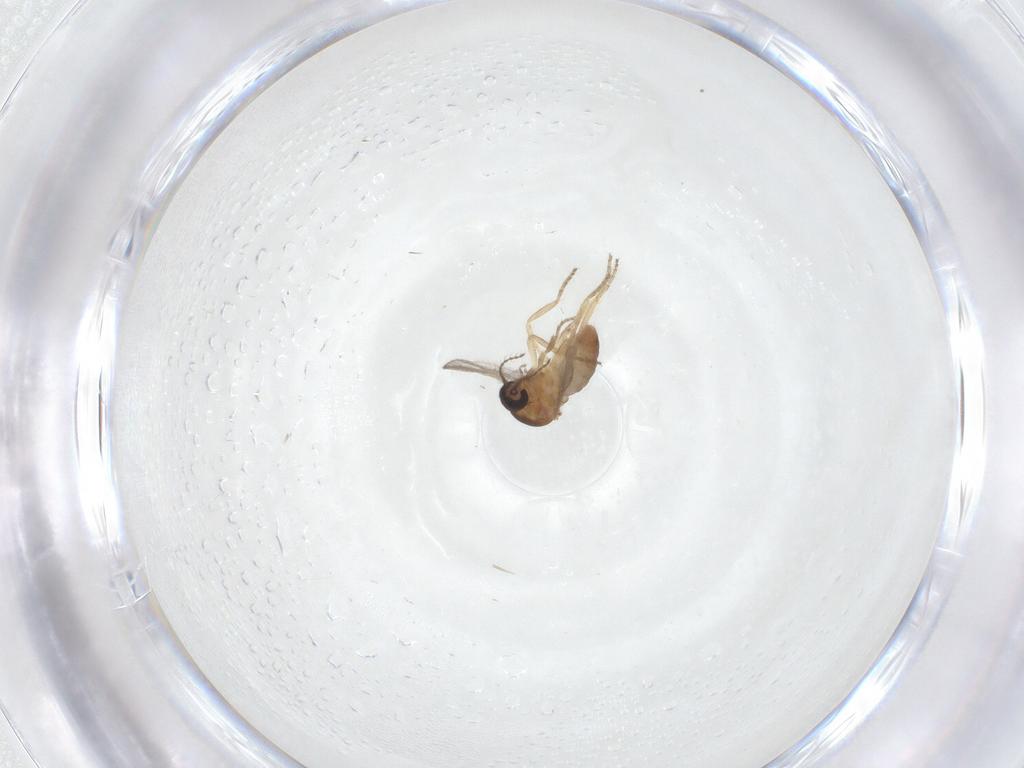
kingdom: Animalia
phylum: Arthropoda
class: Insecta
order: Diptera
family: Ceratopogonidae
